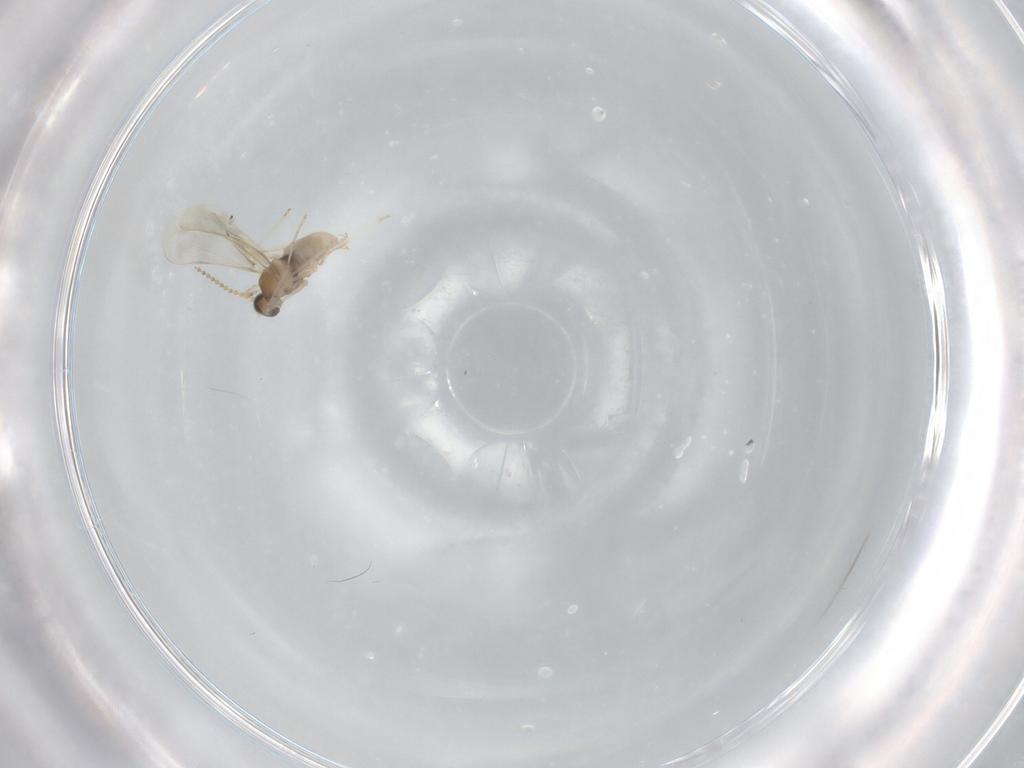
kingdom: Animalia
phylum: Arthropoda
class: Insecta
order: Diptera
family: Cecidomyiidae
